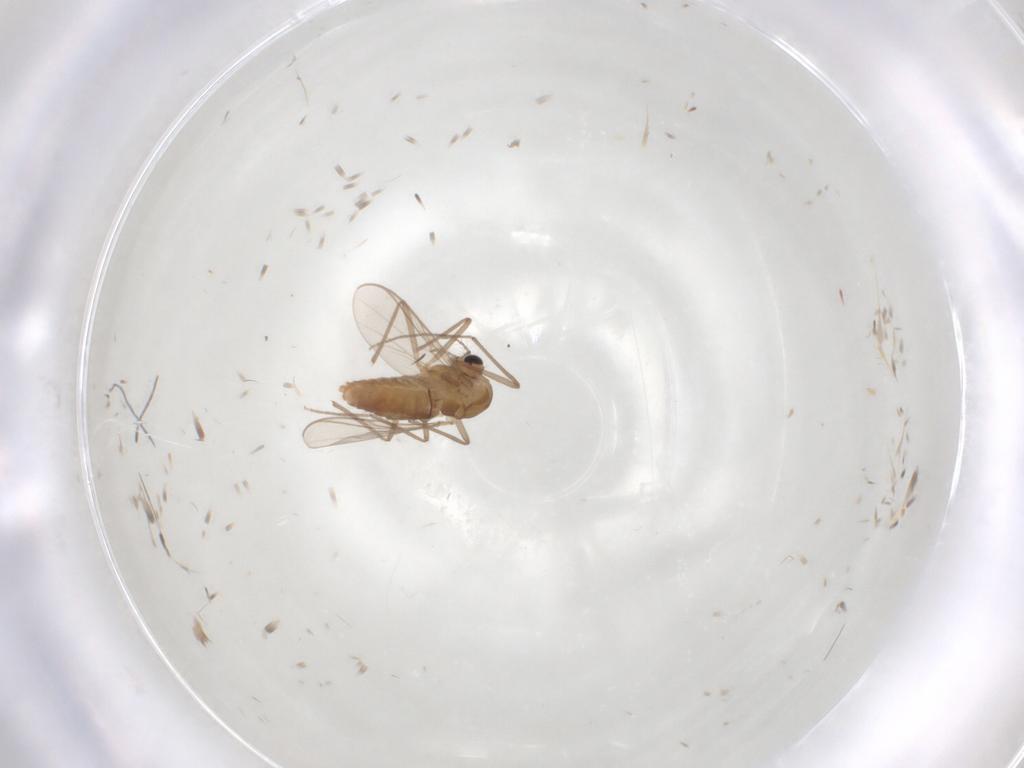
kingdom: Animalia
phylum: Arthropoda
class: Insecta
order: Diptera
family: Chironomidae
